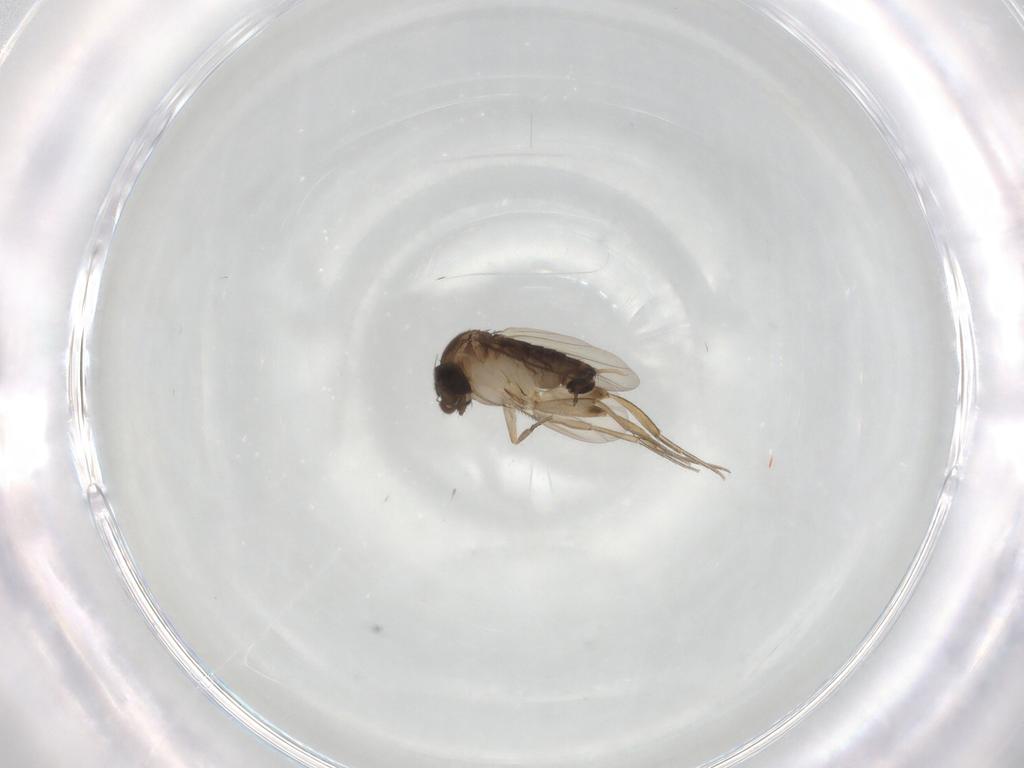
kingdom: Animalia
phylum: Arthropoda
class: Insecta
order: Diptera
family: Cecidomyiidae
